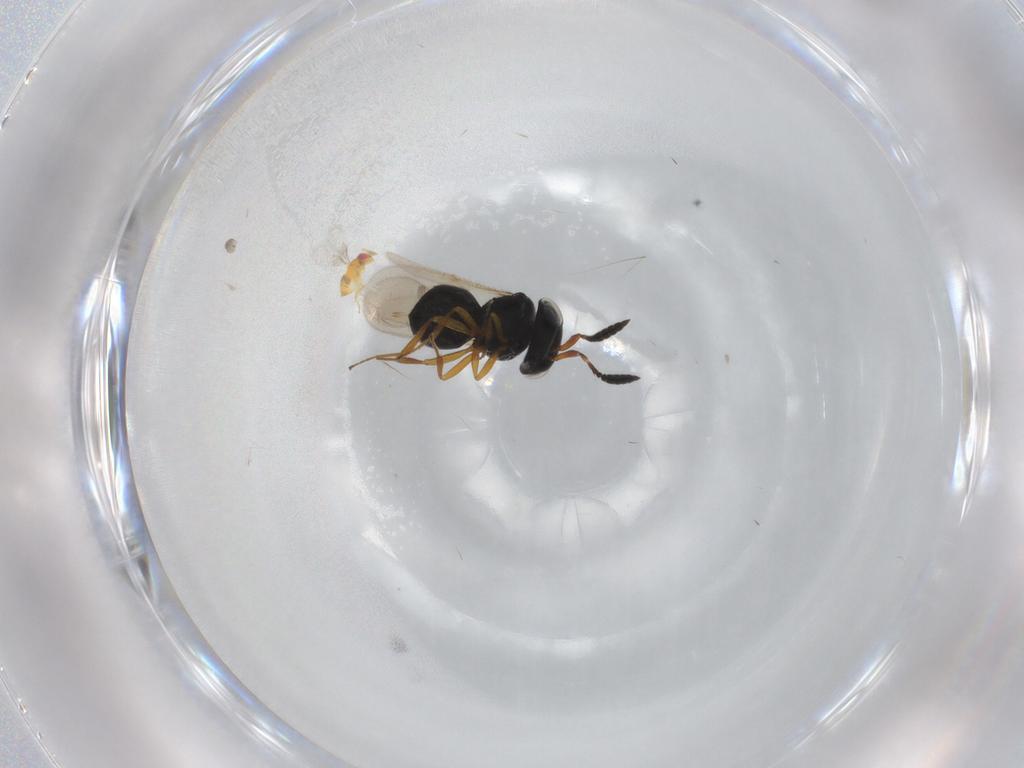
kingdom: Animalia
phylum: Arthropoda
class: Insecta
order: Hymenoptera
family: Scelionidae
